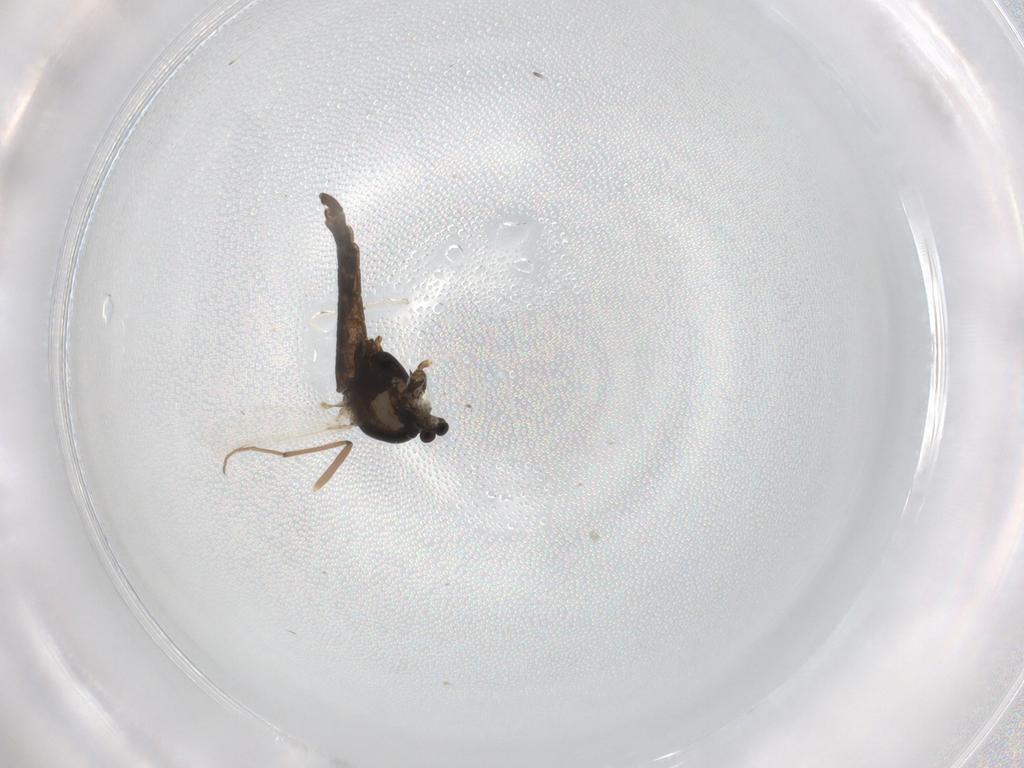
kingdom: Animalia
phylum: Arthropoda
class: Insecta
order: Diptera
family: Chironomidae
